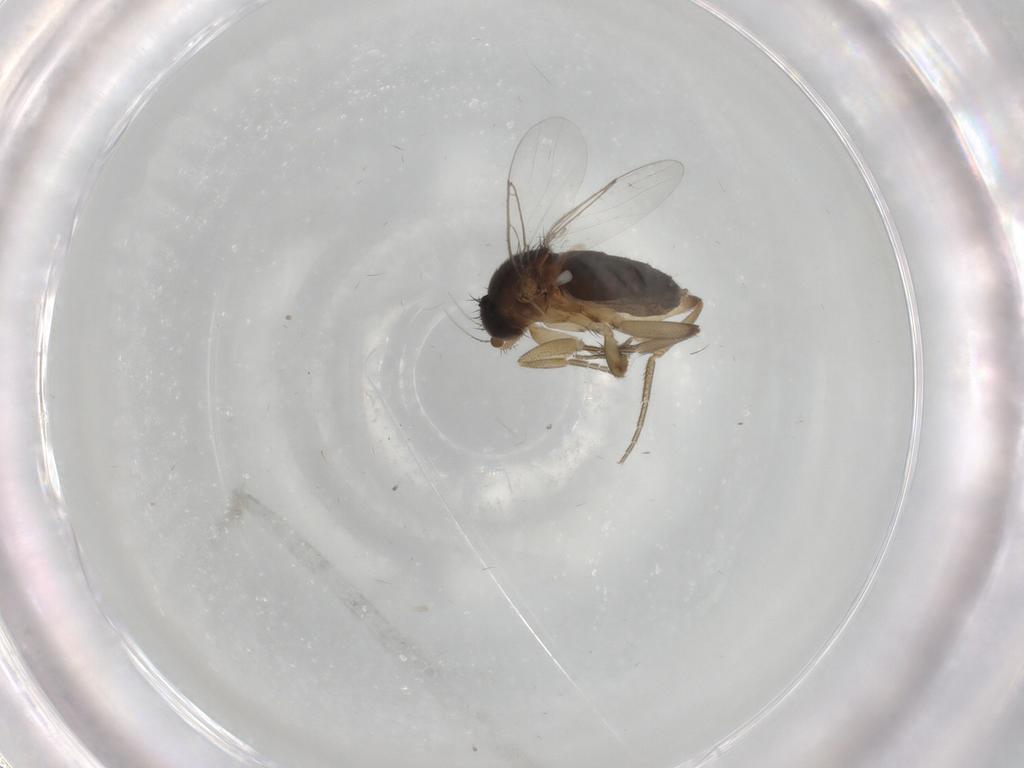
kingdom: Animalia
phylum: Arthropoda
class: Insecta
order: Diptera
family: Phoridae
